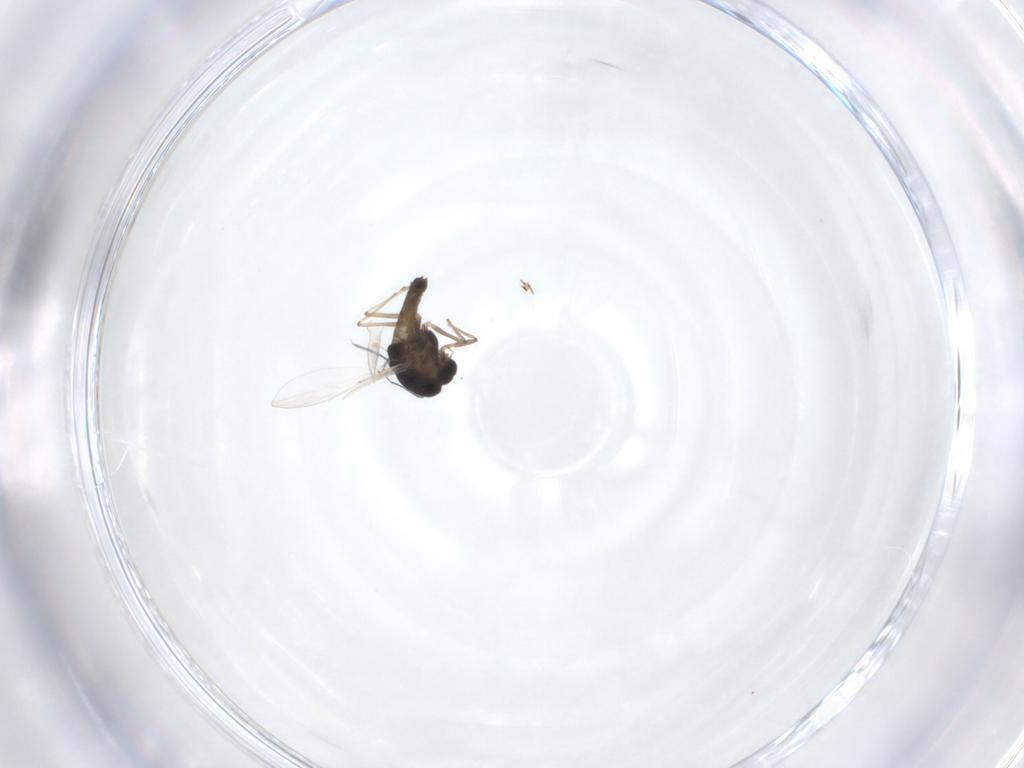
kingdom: Animalia
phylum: Arthropoda
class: Insecta
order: Diptera
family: Chironomidae
